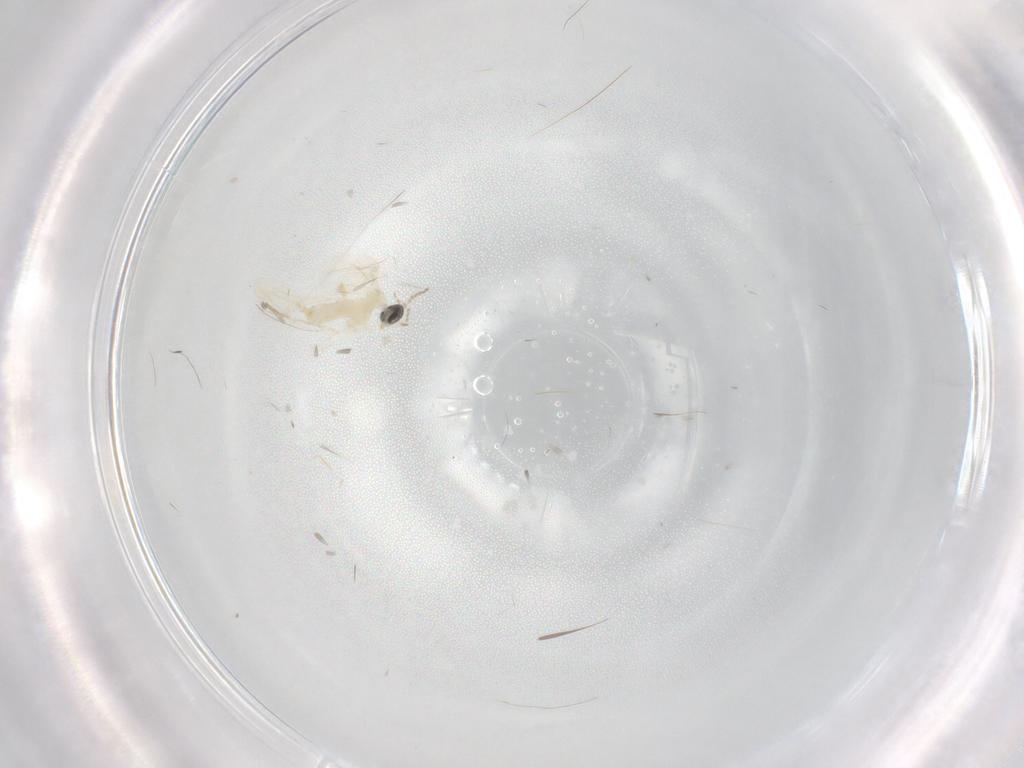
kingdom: Animalia
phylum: Arthropoda
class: Insecta
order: Diptera
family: Cecidomyiidae
